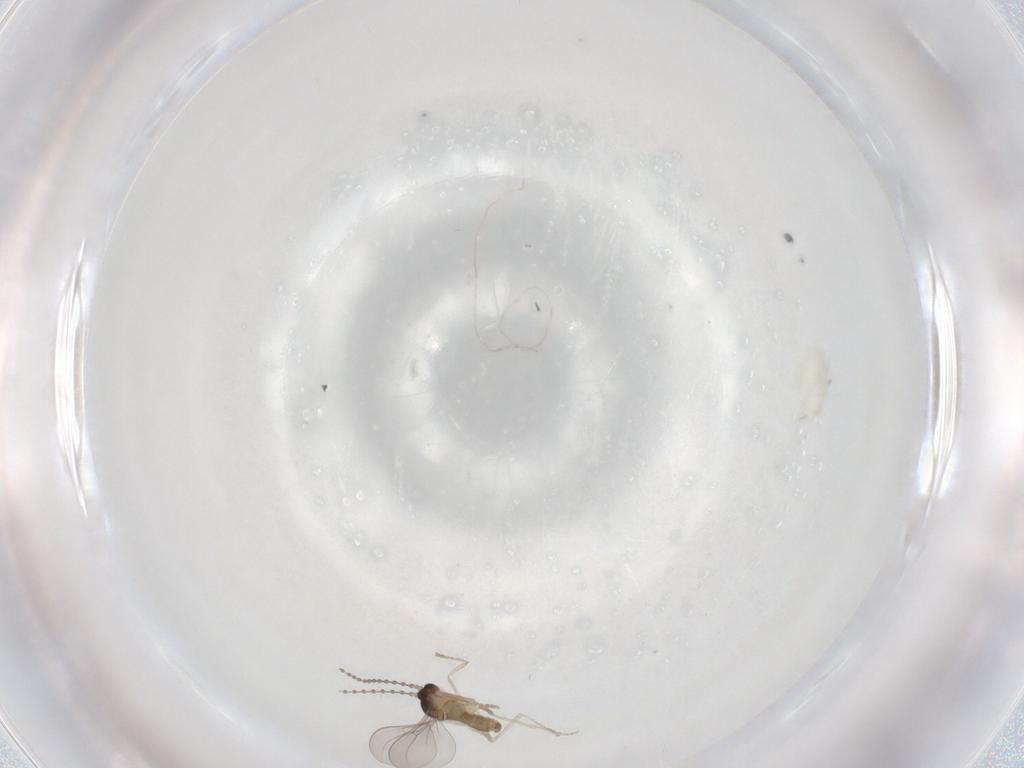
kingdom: Animalia
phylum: Arthropoda
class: Insecta
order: Diptera
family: Cecidomyiidae
